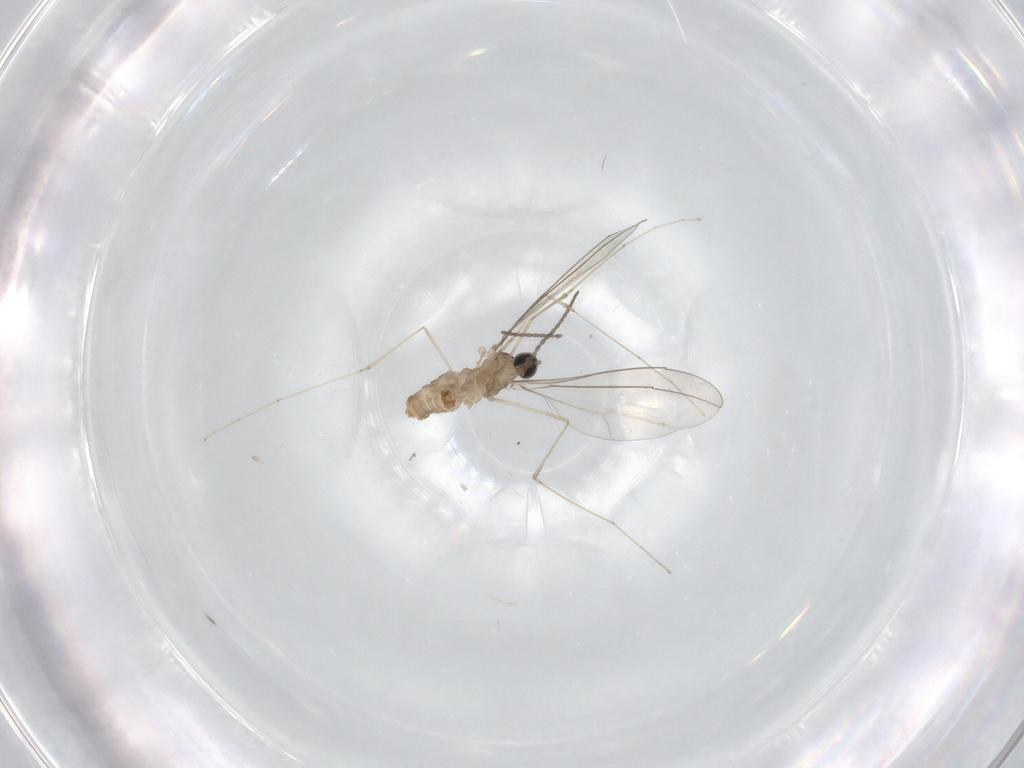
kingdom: Animalia
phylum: Arthropoda
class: Insecta
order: Diptera
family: Cecidomyiidae
